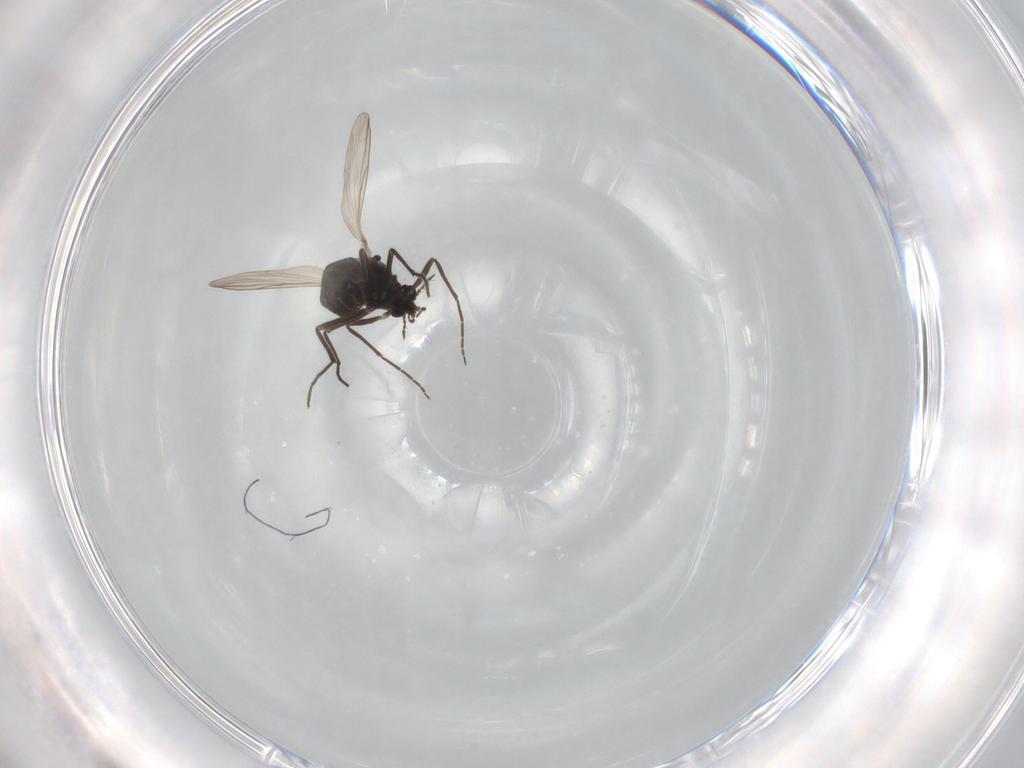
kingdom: Animalia
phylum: Arthropoda
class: Insecta
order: Diptera
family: Chironomidae
